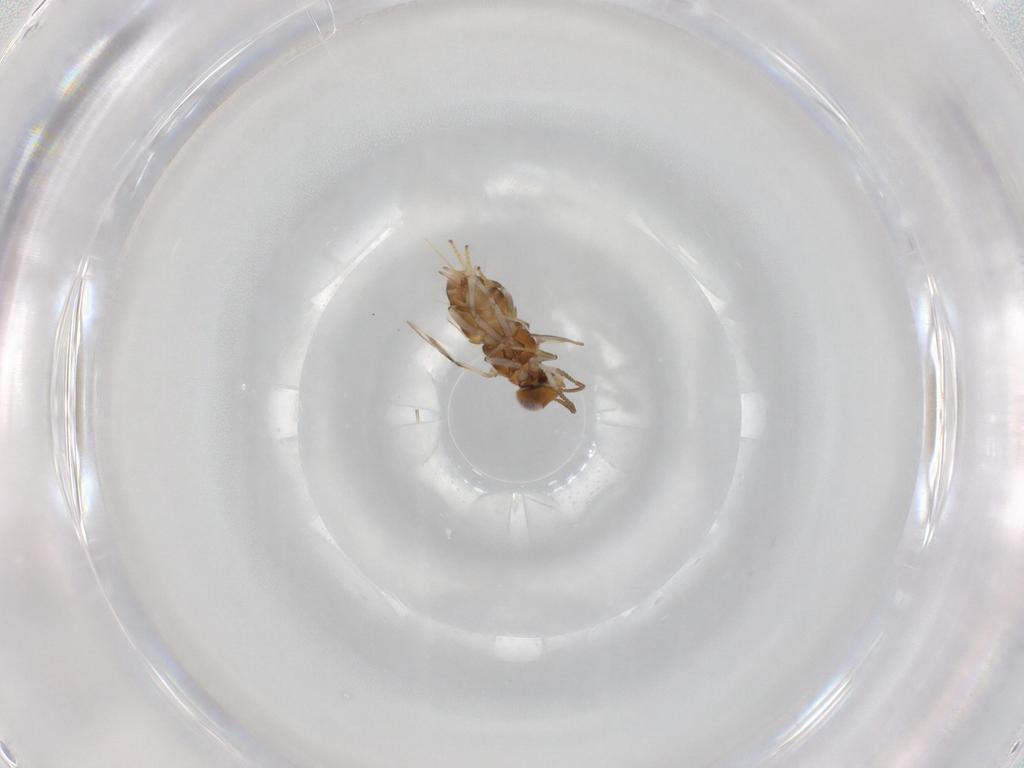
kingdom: Animalia
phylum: Arthropoda
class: Insecta
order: Hymenoptera
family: Encyrtidae
